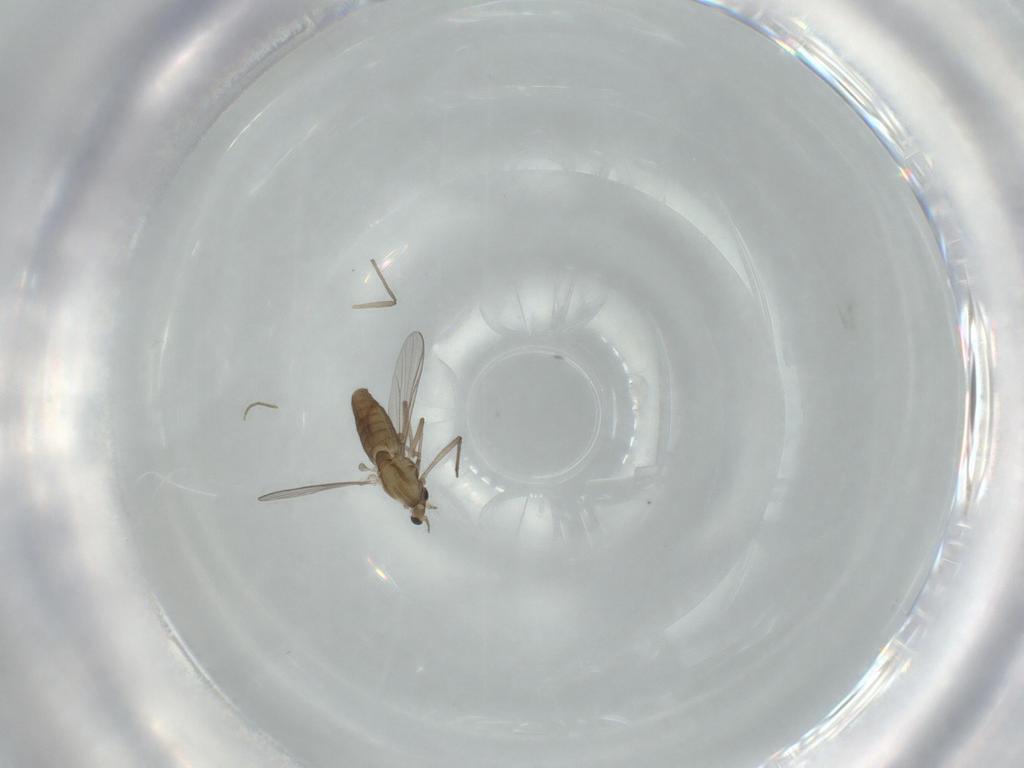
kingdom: Animalia
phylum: Arthropoda
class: Insecta
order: Diptera
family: Chironomidae
